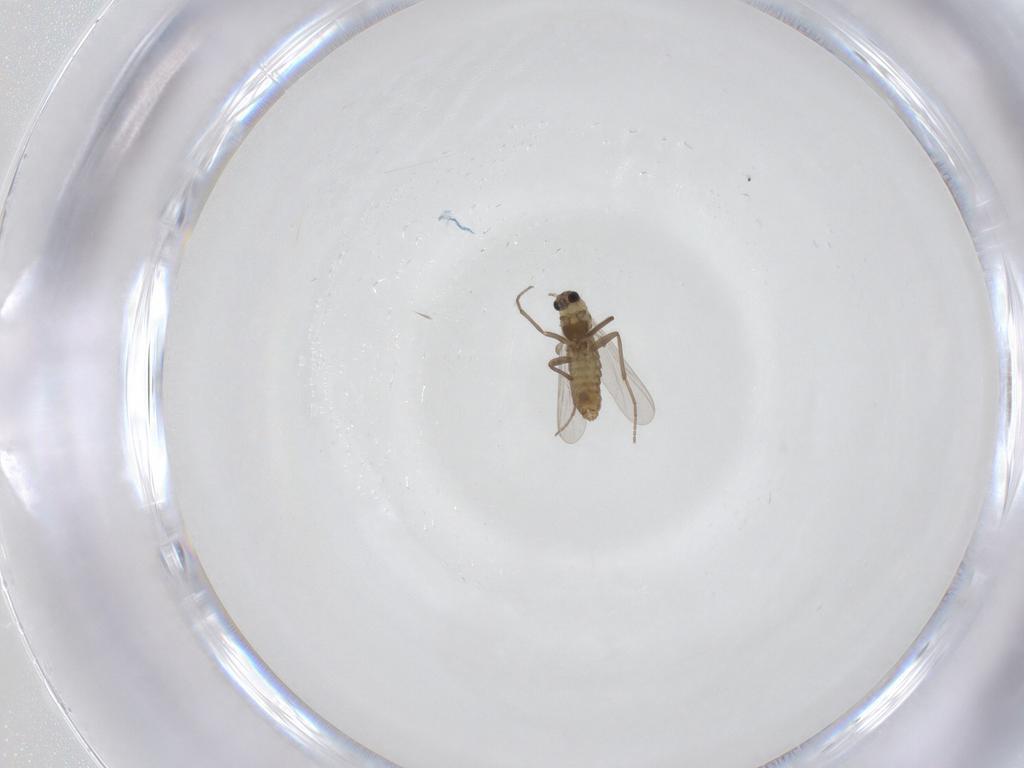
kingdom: Animalia
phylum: Arthropoda
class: Insecta
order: Diptera
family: Chironomidae
